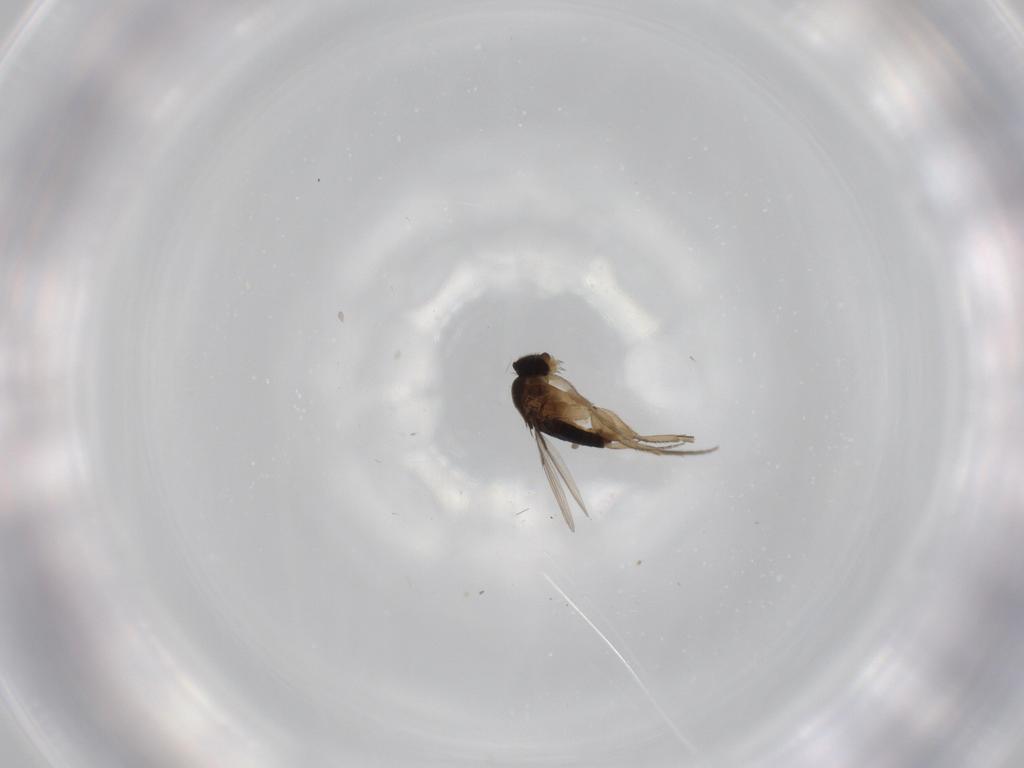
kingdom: Animalia
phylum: Arthropoda
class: Insecta
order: Diptera
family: Phoridae
